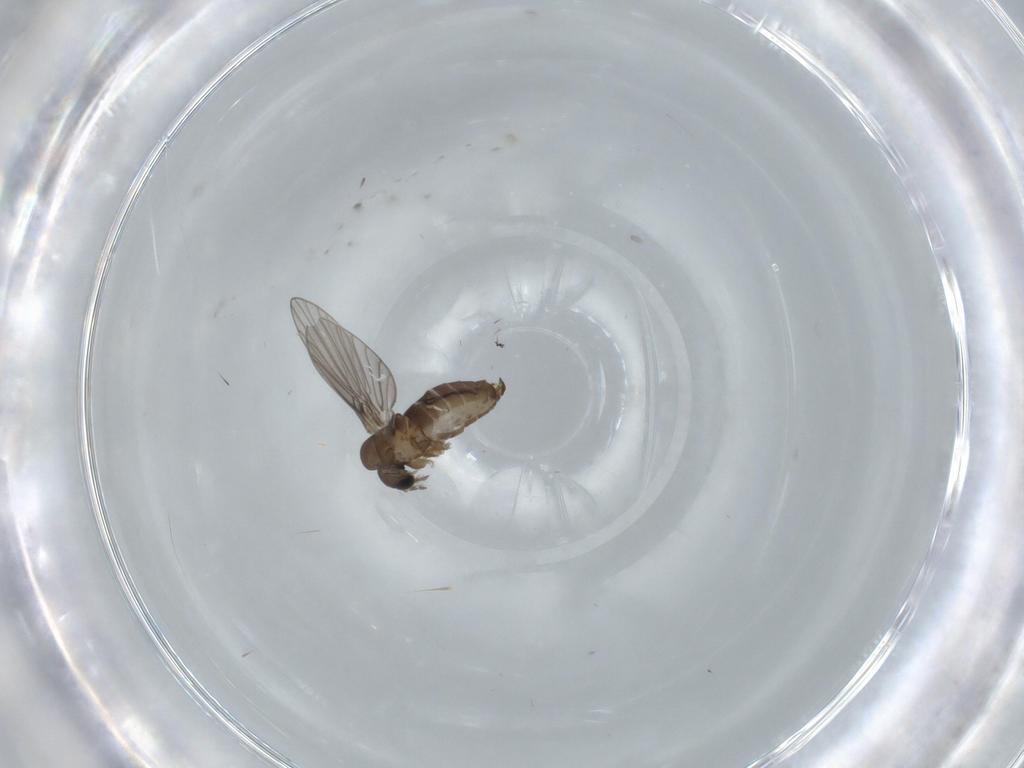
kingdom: Animalia
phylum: Arthropoda
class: Insecta
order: Diptera
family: Psychodidae
